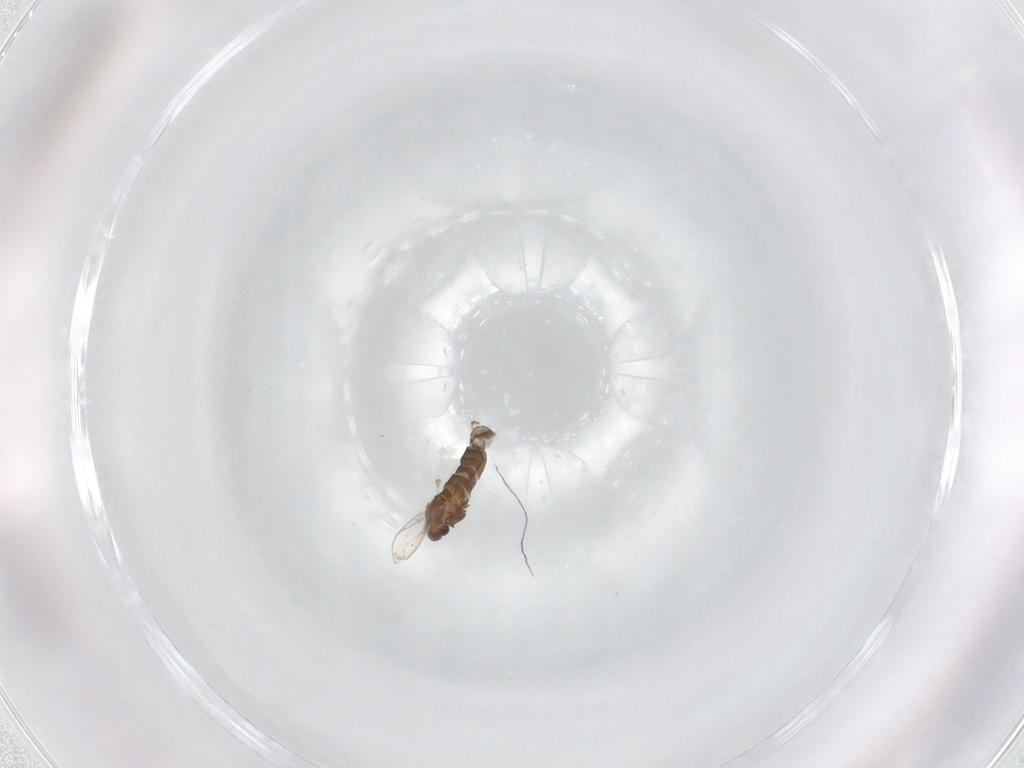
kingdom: Animalia
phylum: Arthropoda
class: Insecta
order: Diptera
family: Chironomidae
